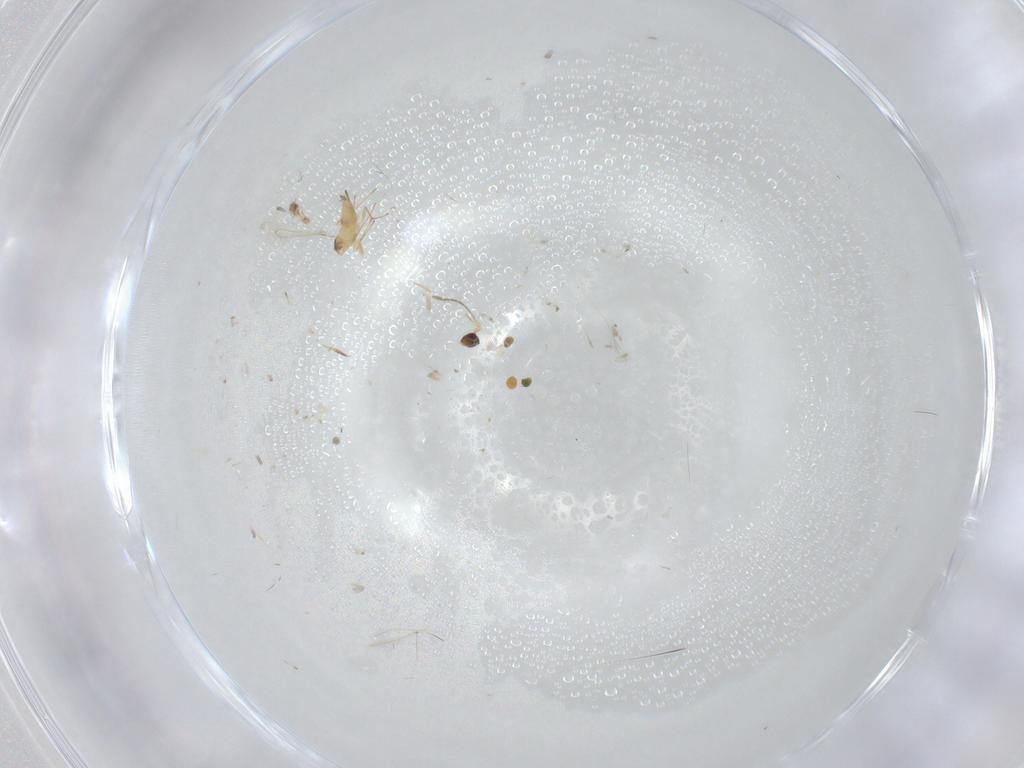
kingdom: Animalia
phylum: Arthropoda
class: Insecta
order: Hymenoptera
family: Scelionidae
